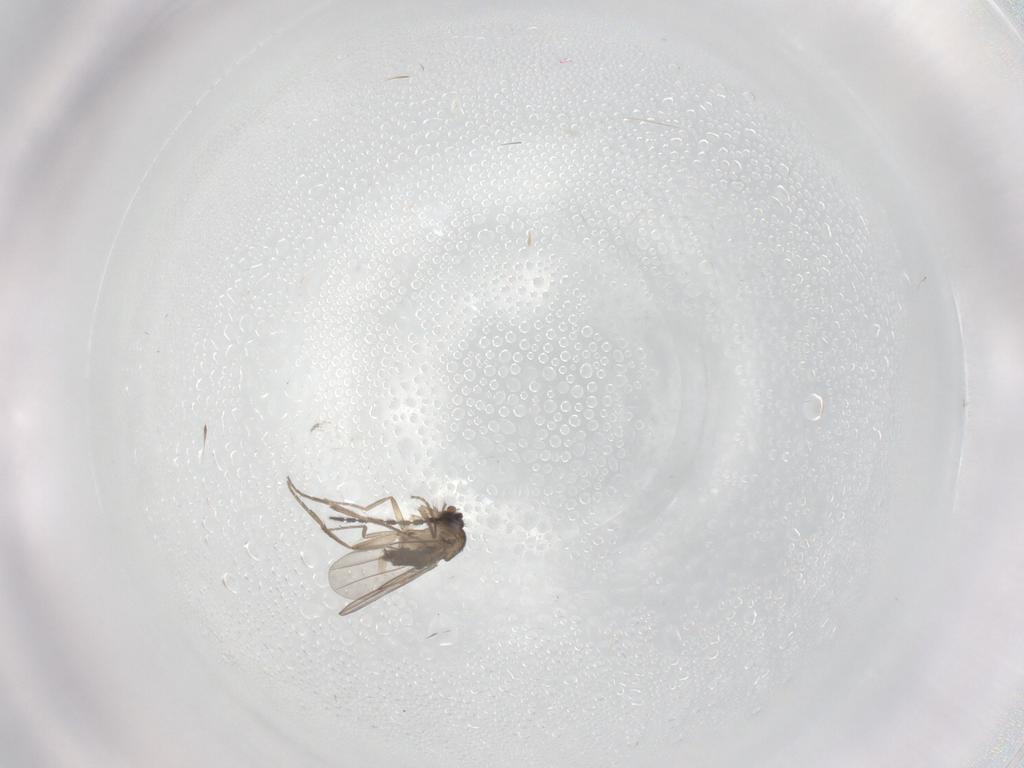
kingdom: Animalia
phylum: Arthropoda
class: Insecta
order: Diptera
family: Sciaridae
